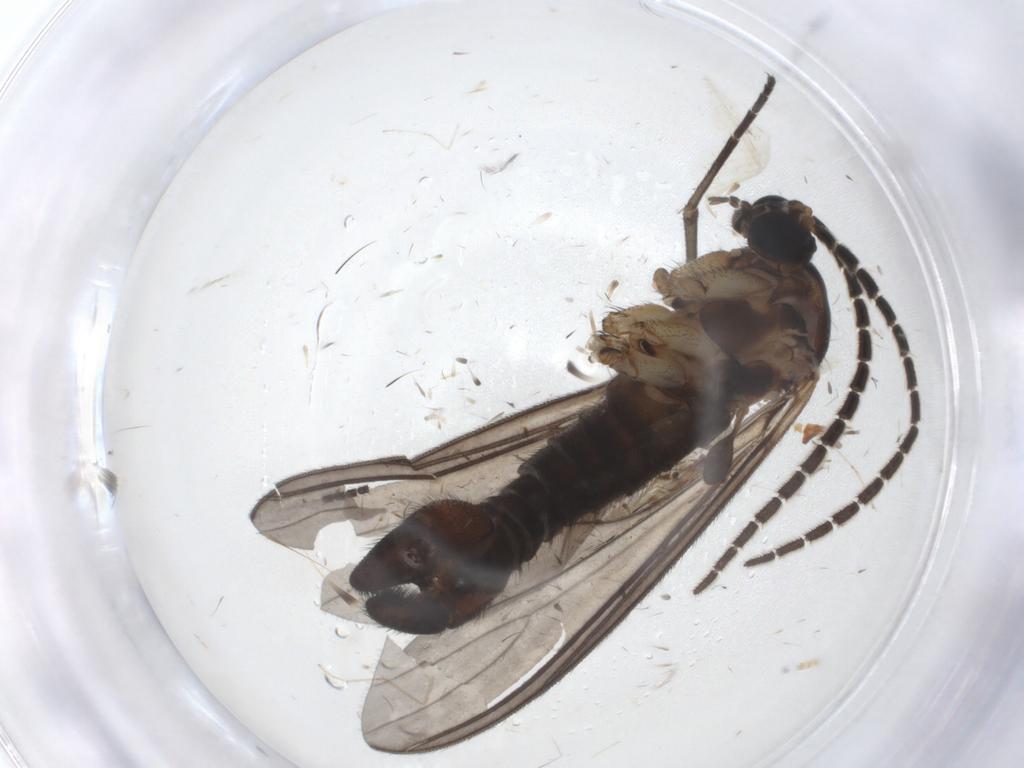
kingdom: Animalia
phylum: Arthropoda
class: Insecta
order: Diptera
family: Sciaridae
